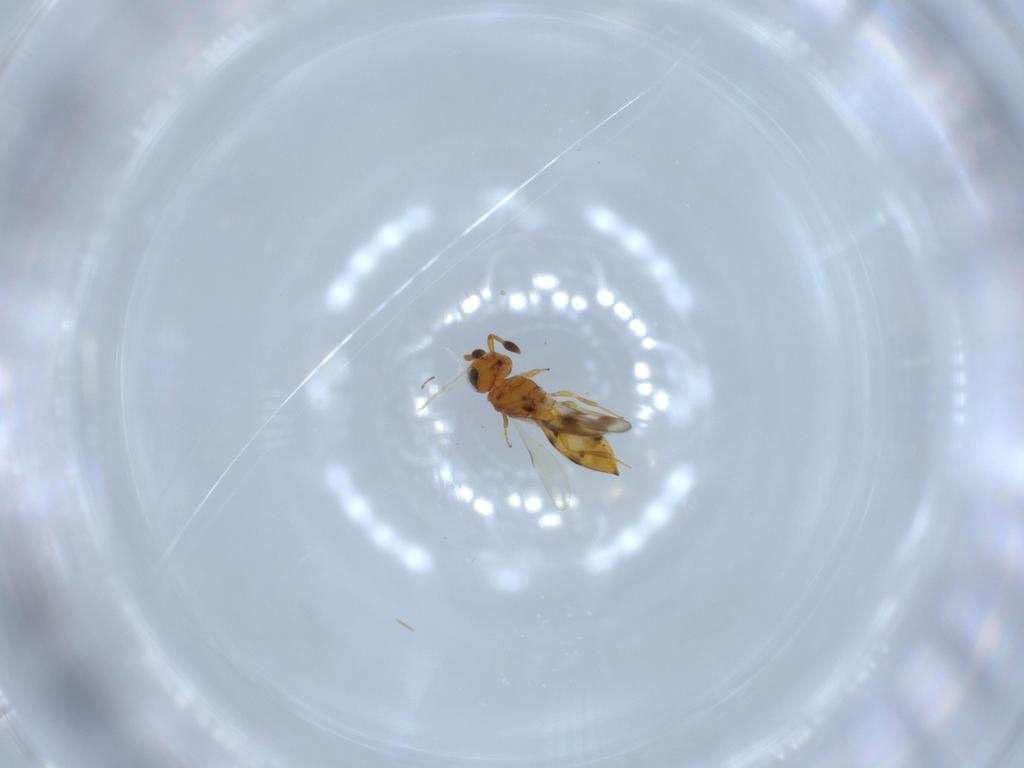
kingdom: Animalia
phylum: Arthropoda
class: Insecta
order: Hymenoptera
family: Scelionidae
